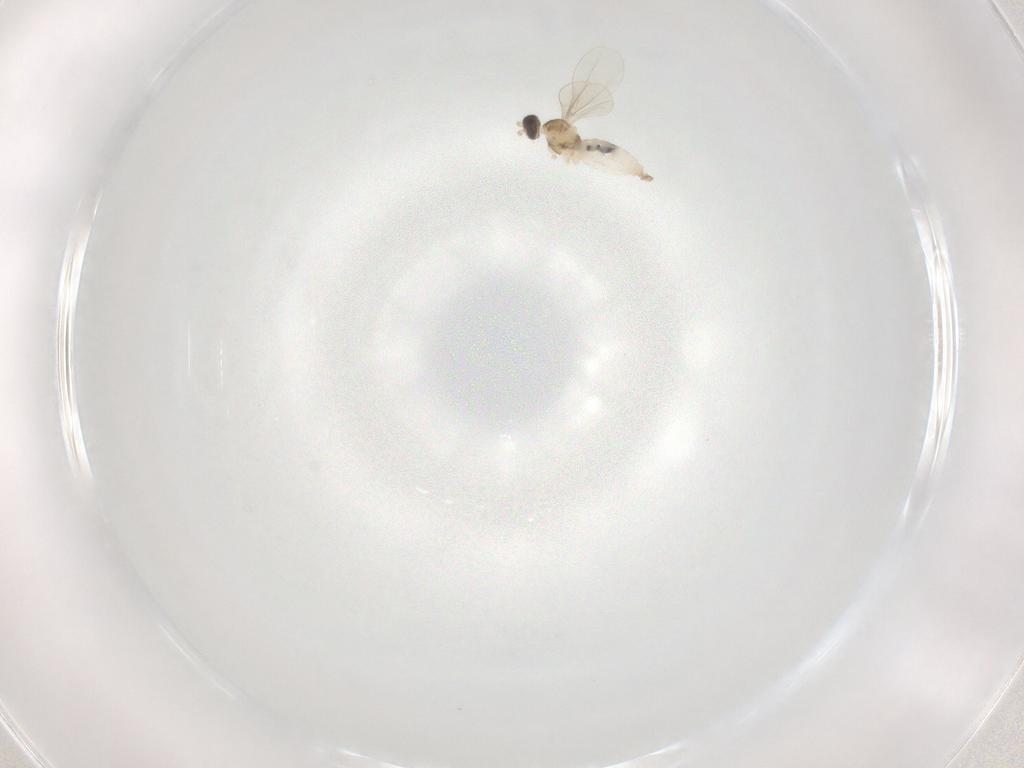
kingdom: Animalia
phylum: Arthropoda
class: Insecta
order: Diptera
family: Cecidomyiidae
